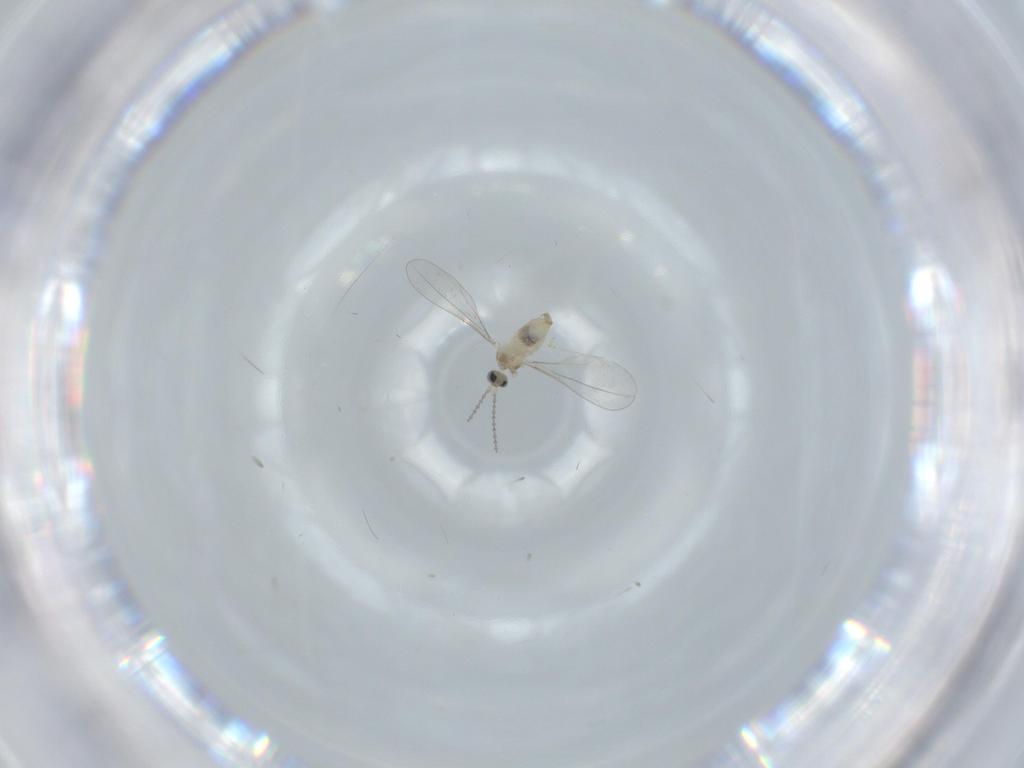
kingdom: Animalia
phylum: Arthropoda
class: Insecta
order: Diptera
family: Cecidomyiidae
